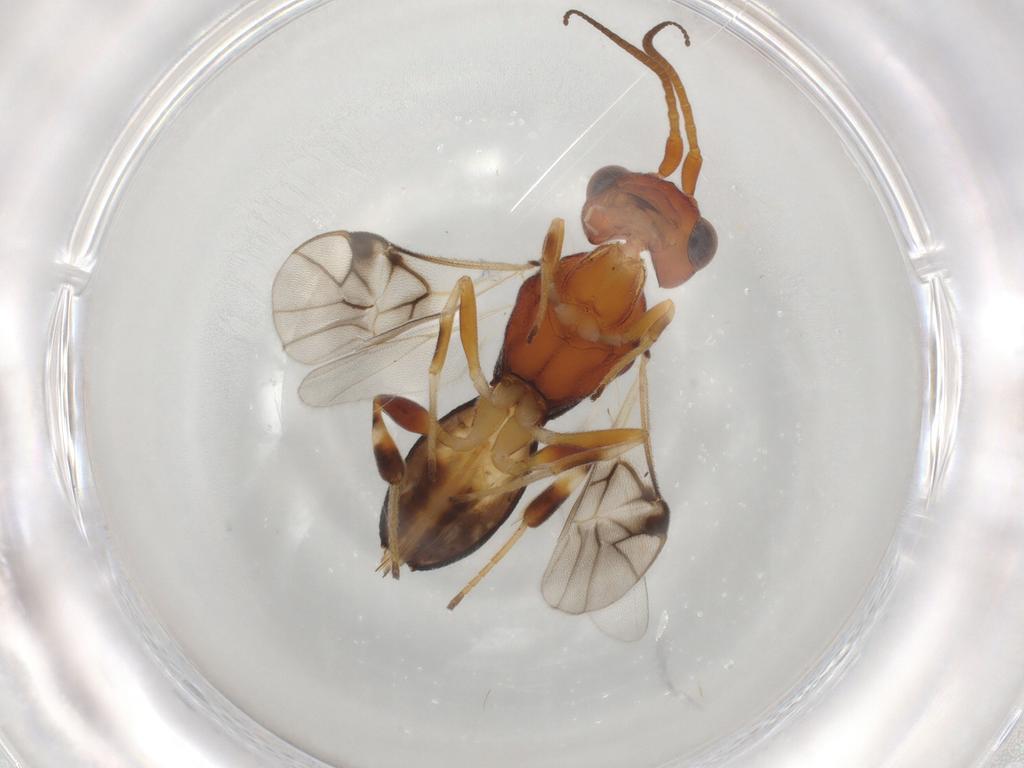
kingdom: Animalia
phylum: Arthropoda
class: Insecta
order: Hymenoptera
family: Braconidae
